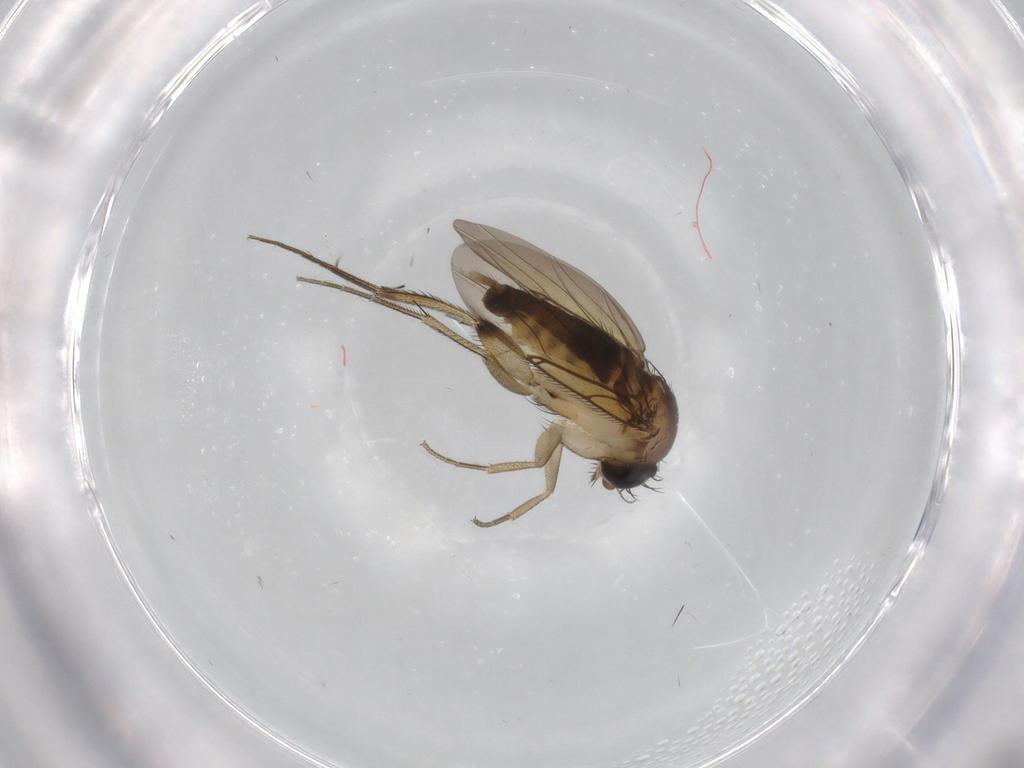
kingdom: Animalia
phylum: Arthropoda
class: Insecta
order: Diptera
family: Phoridae
